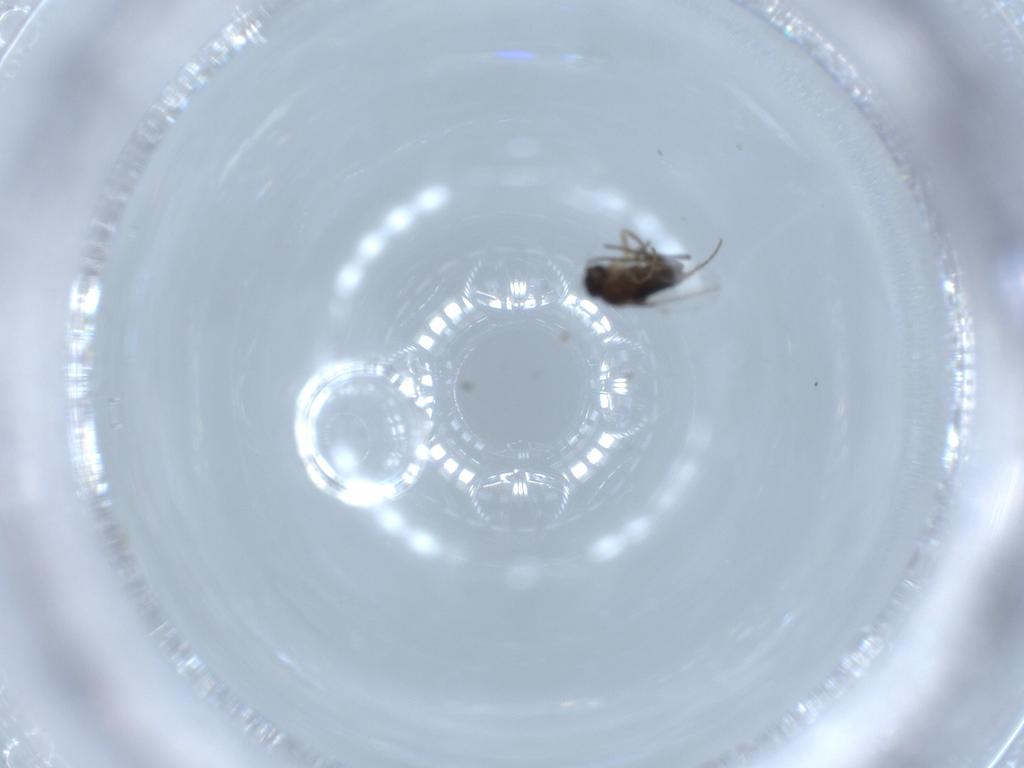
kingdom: Animalia
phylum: Arthropoda
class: Insecta
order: Diptera
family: Phoridae
